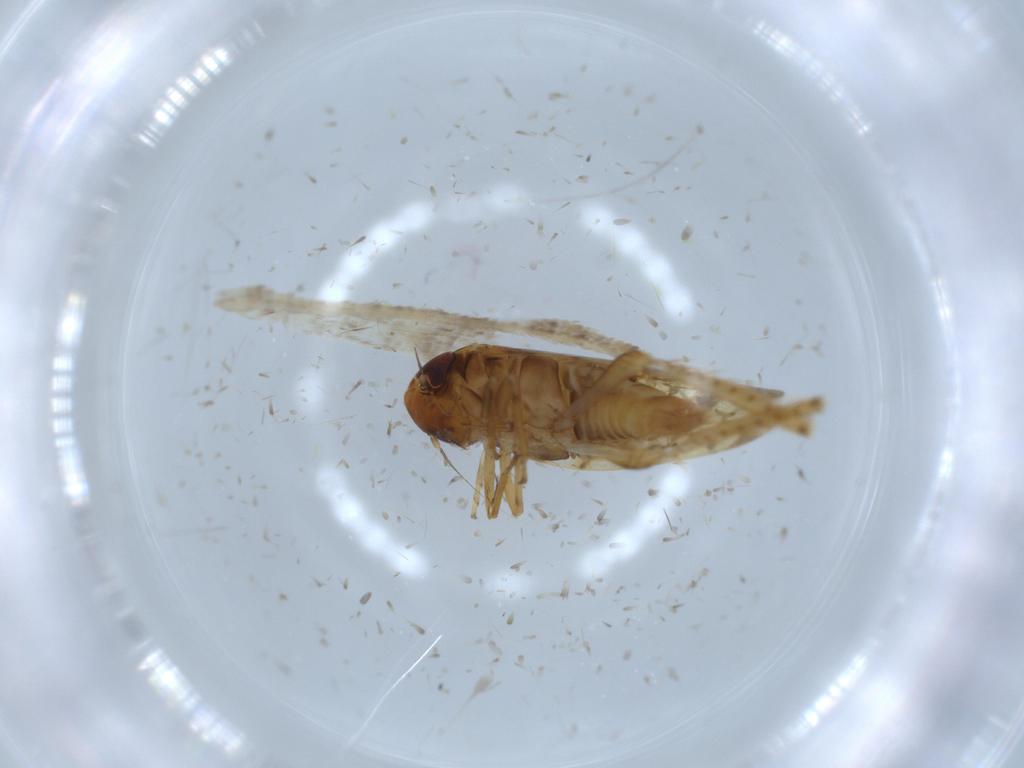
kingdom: Animalia
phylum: Arthropoda
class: Insecta
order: Hemiptera
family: Cicadellidae
